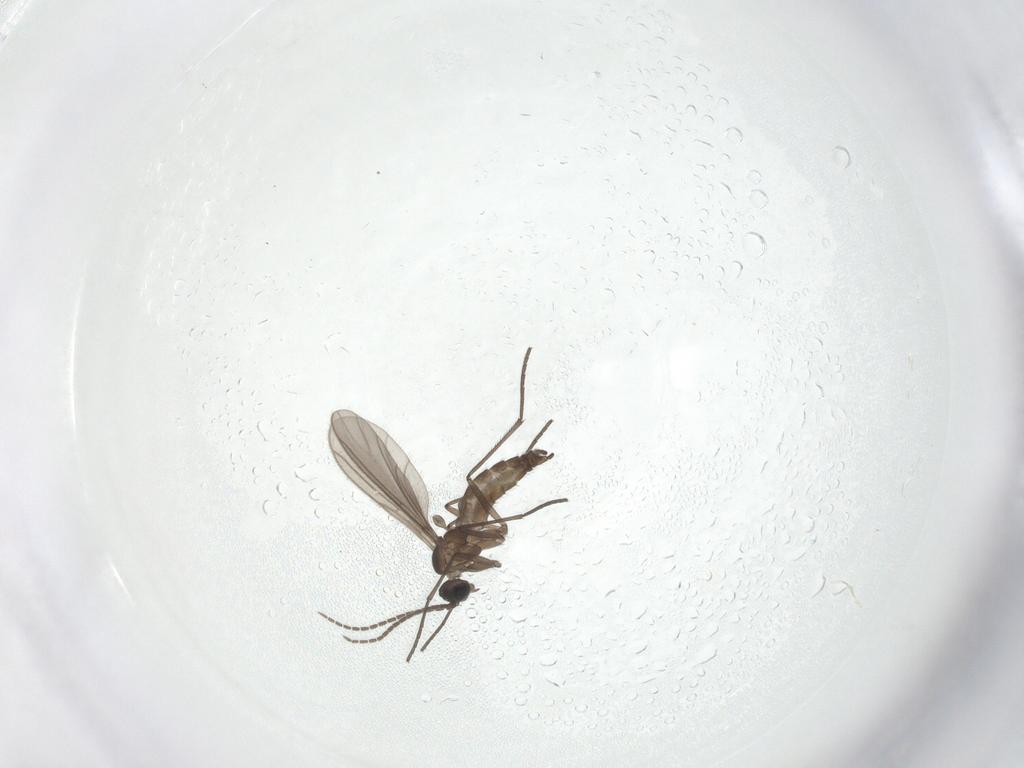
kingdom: Animalia
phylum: Arthropoda
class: Insecta
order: Diptera
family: Sciaridae
